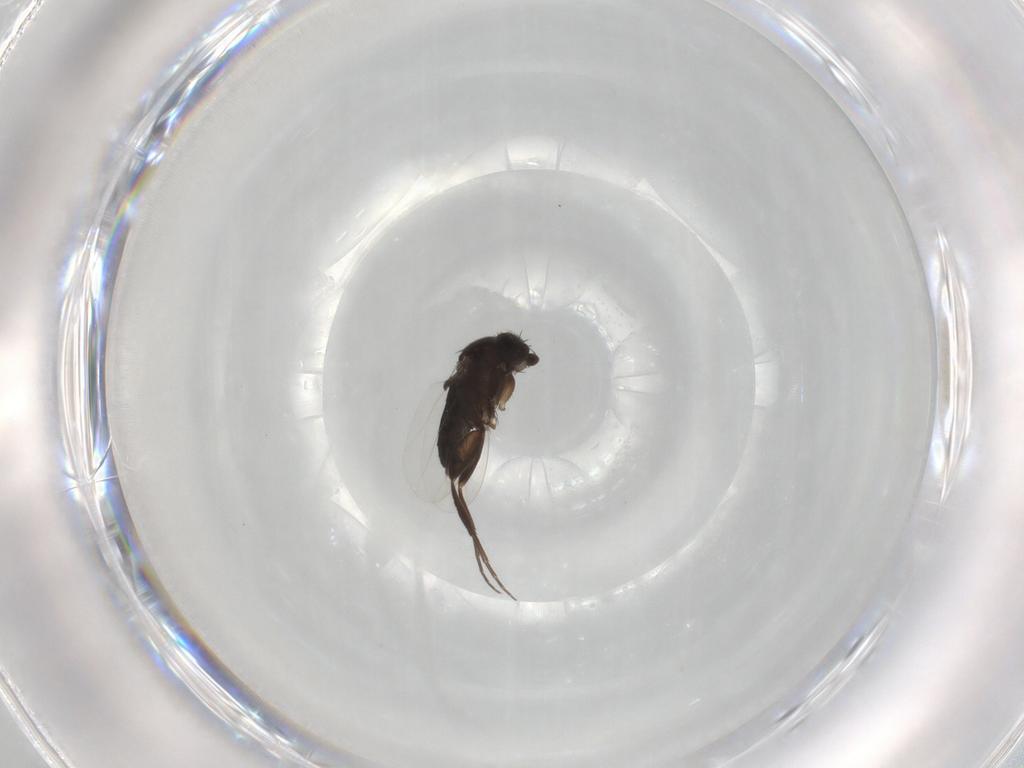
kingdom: Animalia
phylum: Arthropoda
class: Insecta
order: Diptera
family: Phoridae
